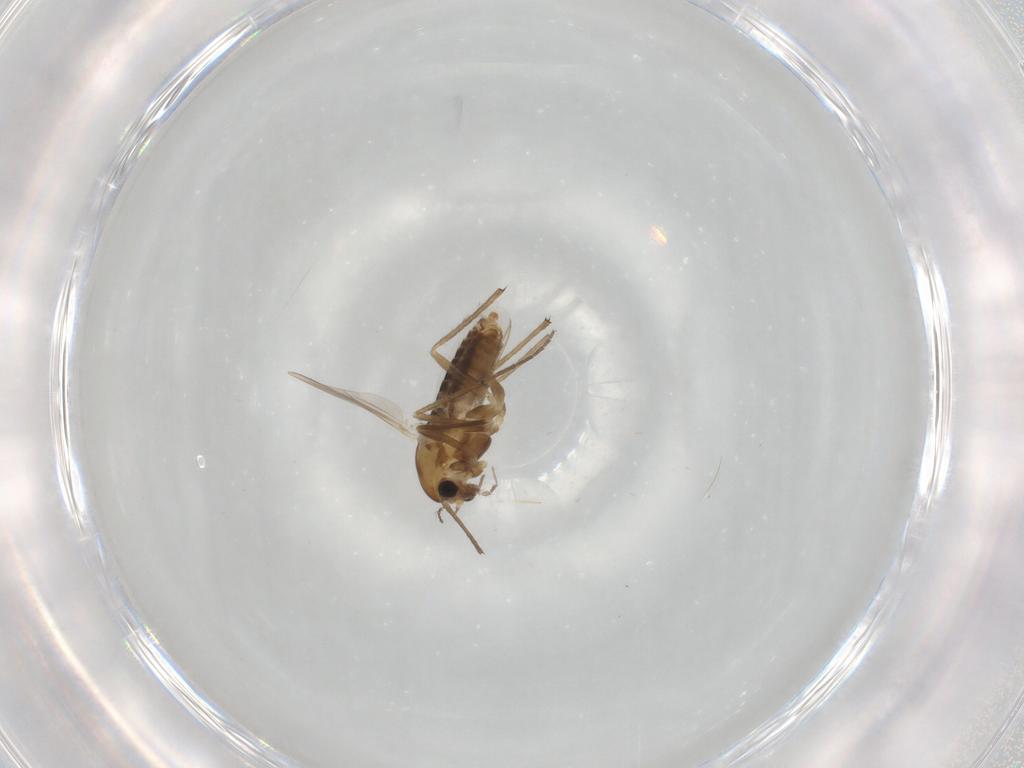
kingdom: Animalia
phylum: Arthropoda
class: Insecta
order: Diptera
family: Chironomidae
